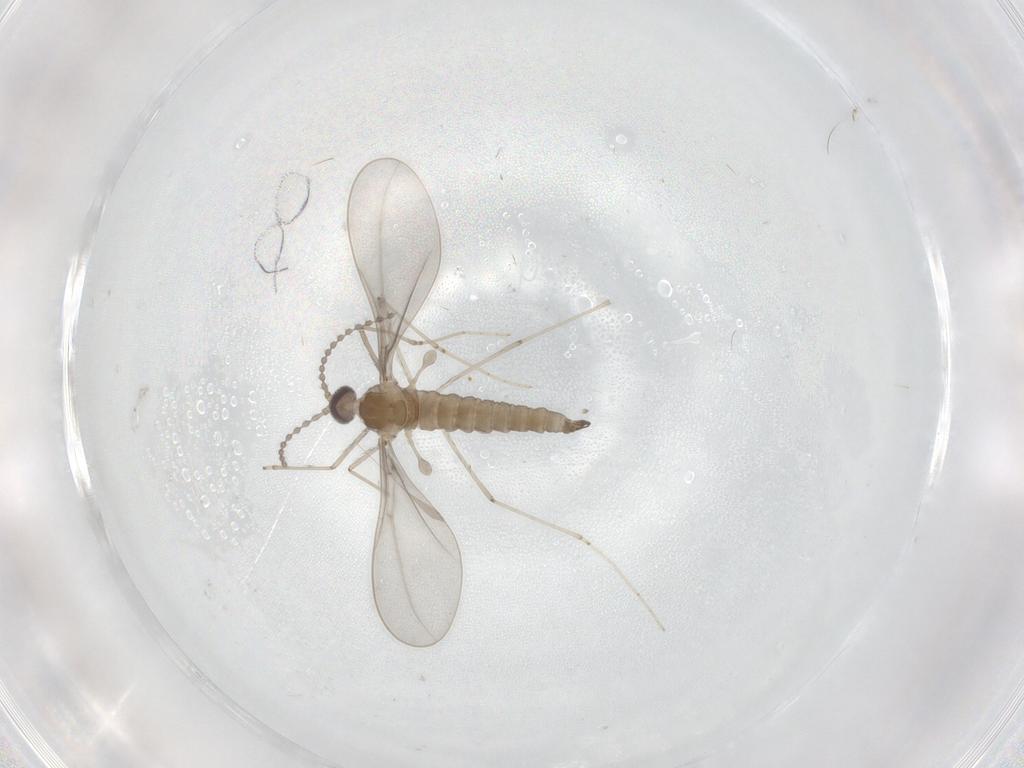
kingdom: Animalia
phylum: Arthropoda
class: Insecta
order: Diptera
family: Cecidomyiidae
